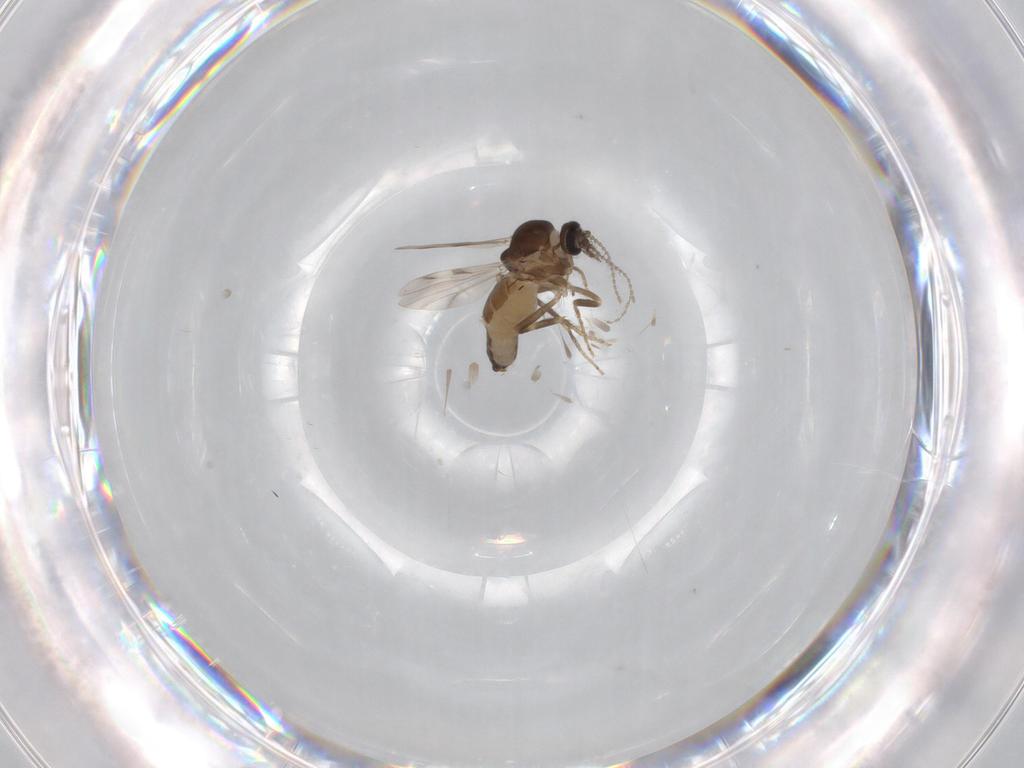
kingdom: Animalia
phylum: Arthropoda
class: Insecta
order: Diptera
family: Ceratopogonidae
